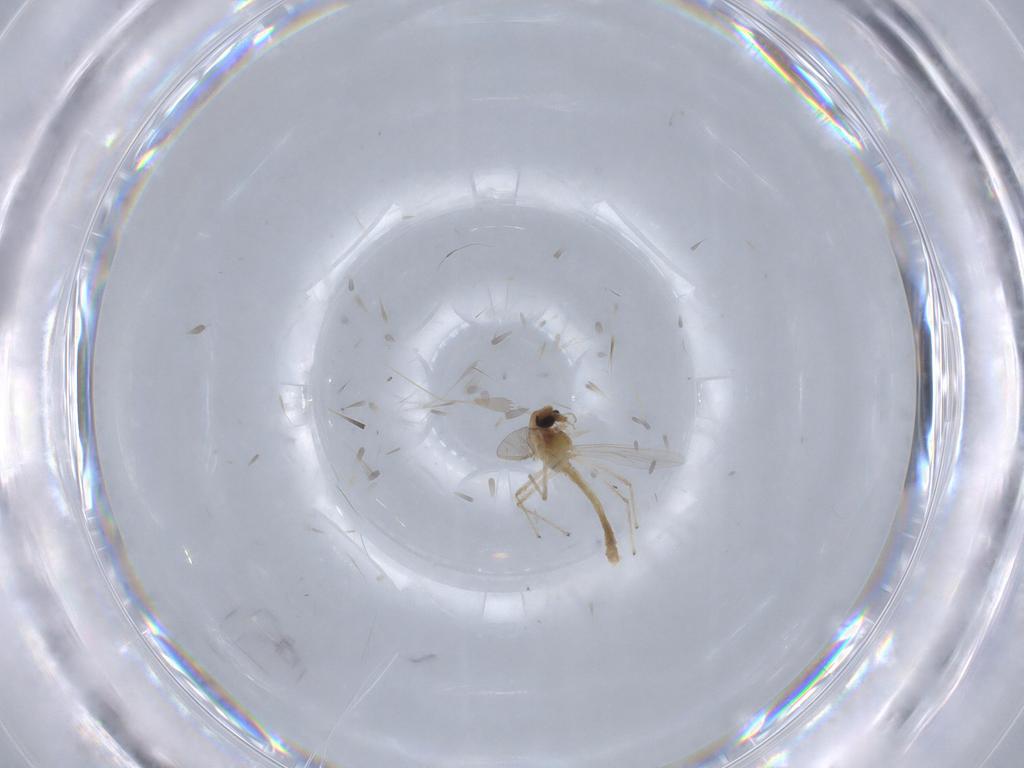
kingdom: Animalia
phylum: Arthropoda
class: Insecta
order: Diptera
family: Chironomidae
